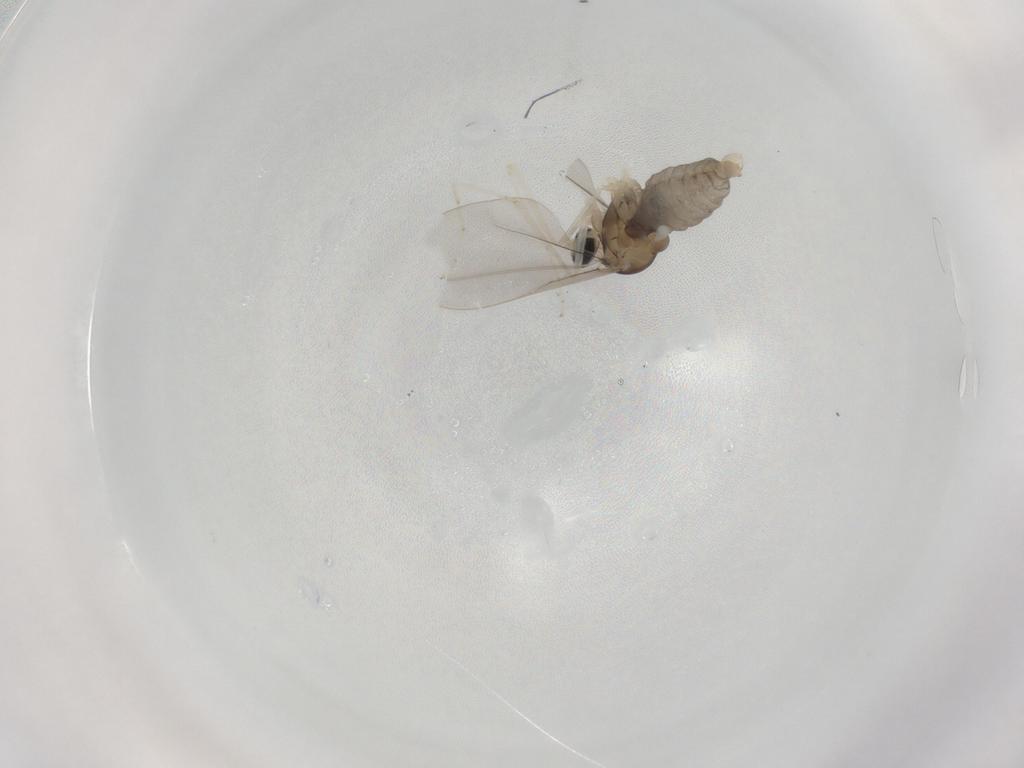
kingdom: Animalia
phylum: Arthropoda
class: Insecta
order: Diptera
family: Cecidomyiidae
